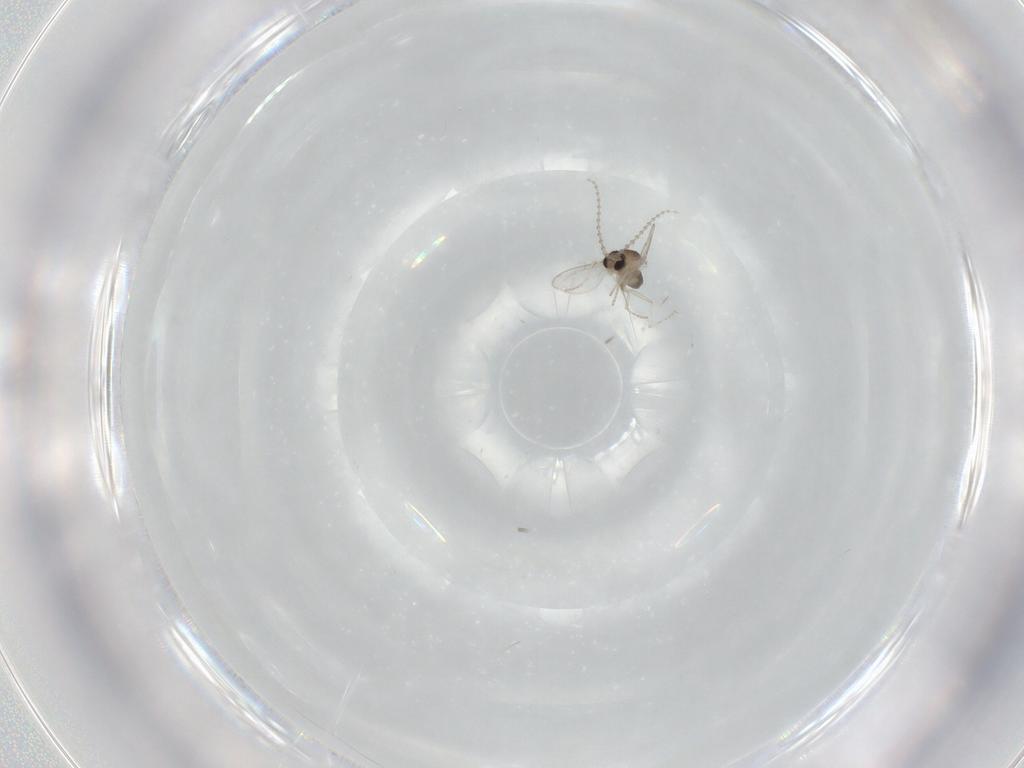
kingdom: Animalia
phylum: Arthropoda
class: Insecta
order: Diptera
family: Cecidomyiidae
